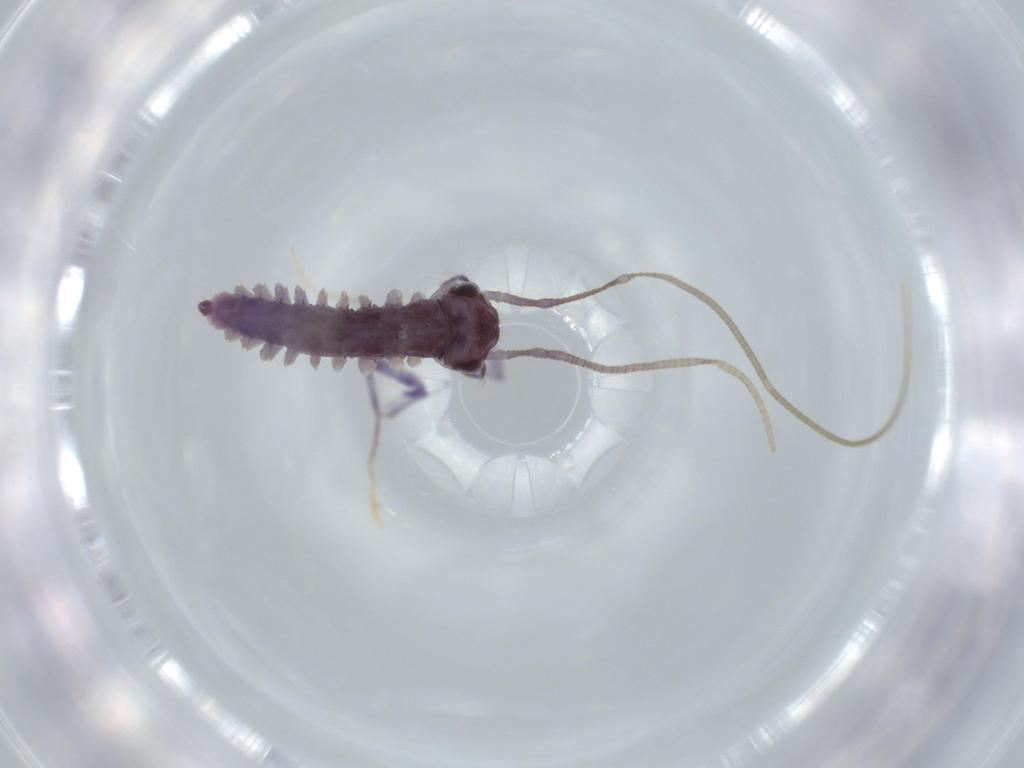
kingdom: Animalia
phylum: Arthropoda
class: Chilopoda
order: Scutigeromorpha
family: Scutigeridae
